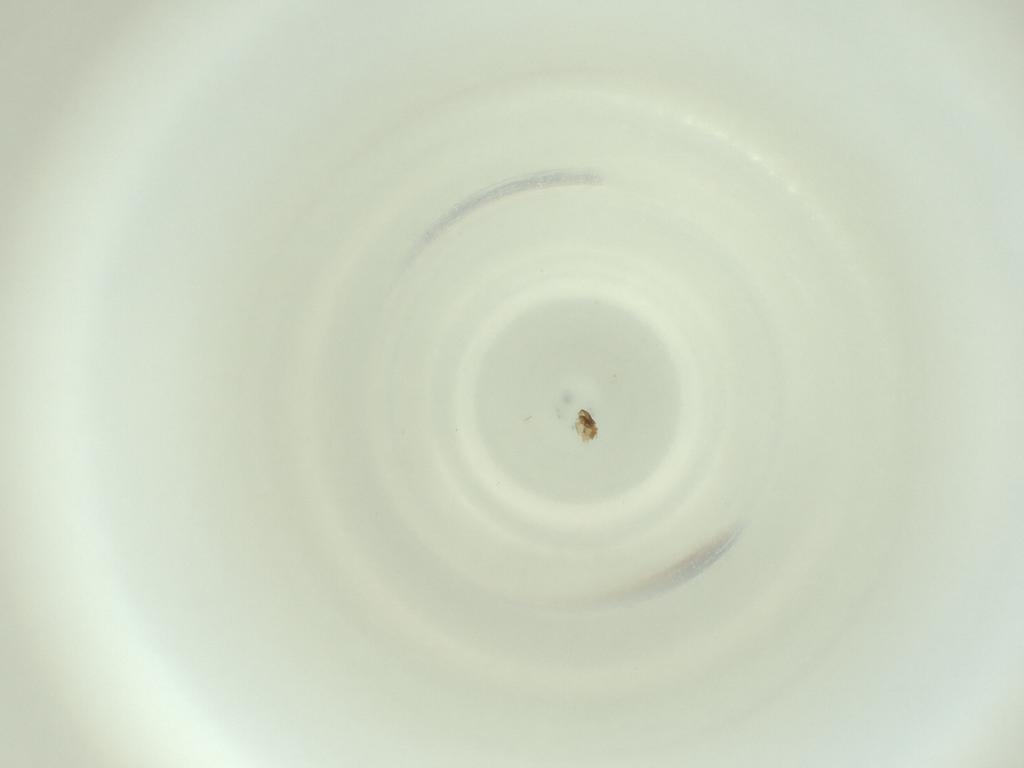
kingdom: Animalia
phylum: Arthropoda
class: Insecta
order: Diptera
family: Cecidomyiidae
